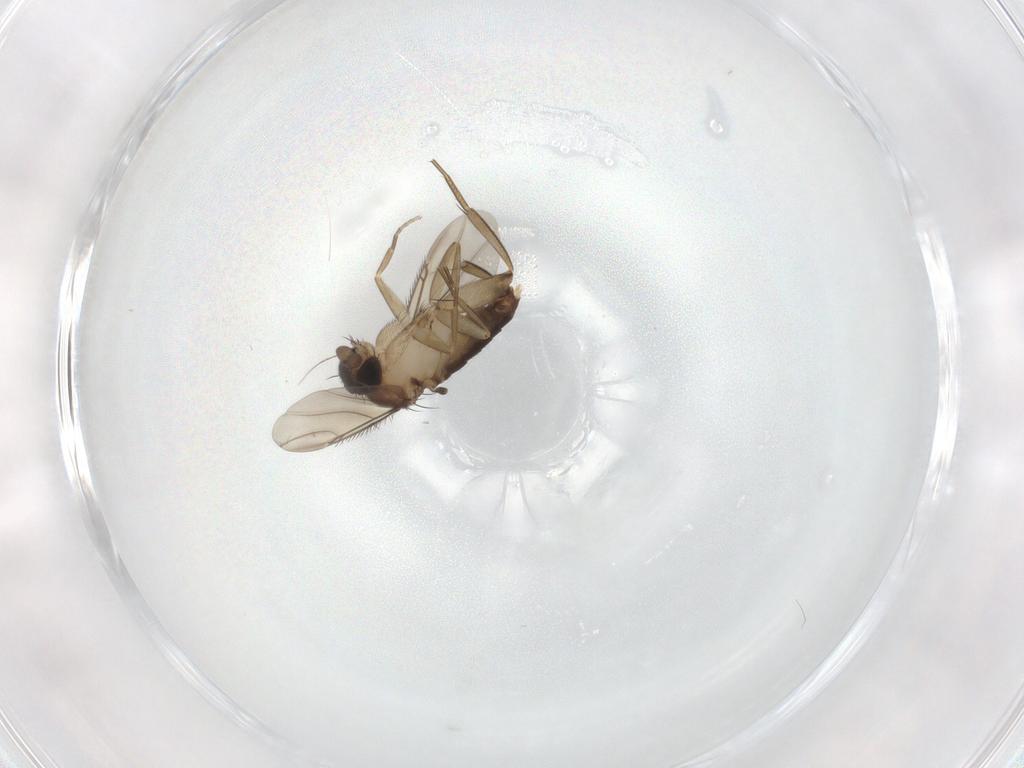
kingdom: Animalia
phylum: Arthropoda
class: Insecta
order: Diptera
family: Phoridae
